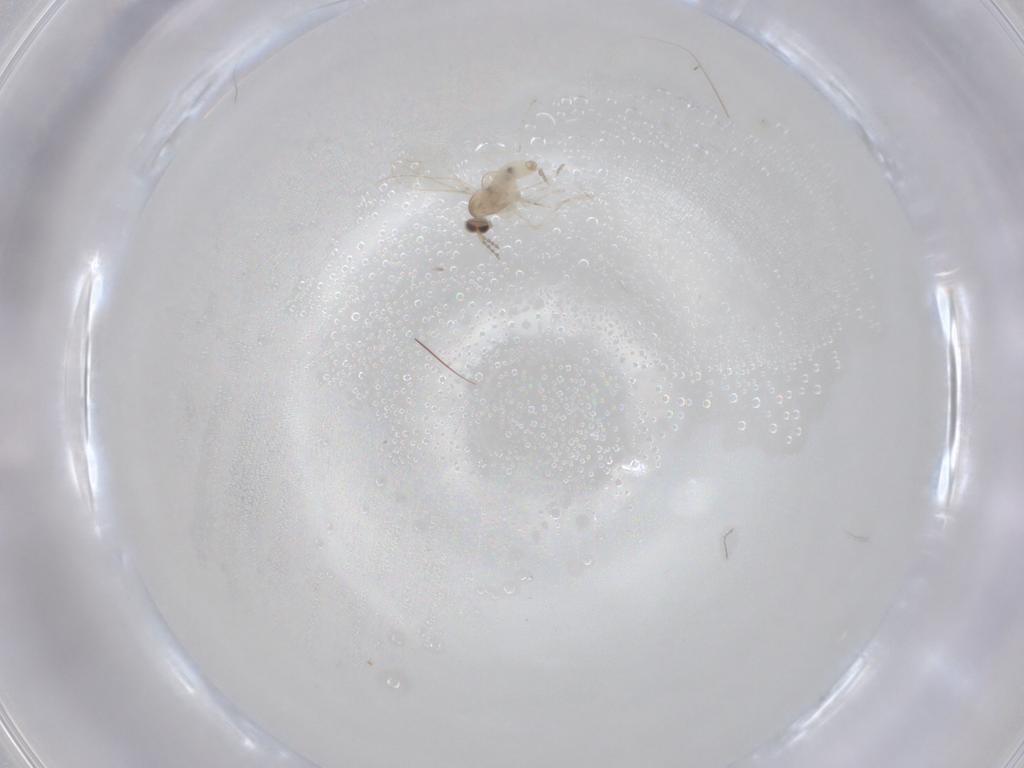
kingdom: Animalia
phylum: Arthropoda
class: Insecta
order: Diptera
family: Cecidomyiidae
